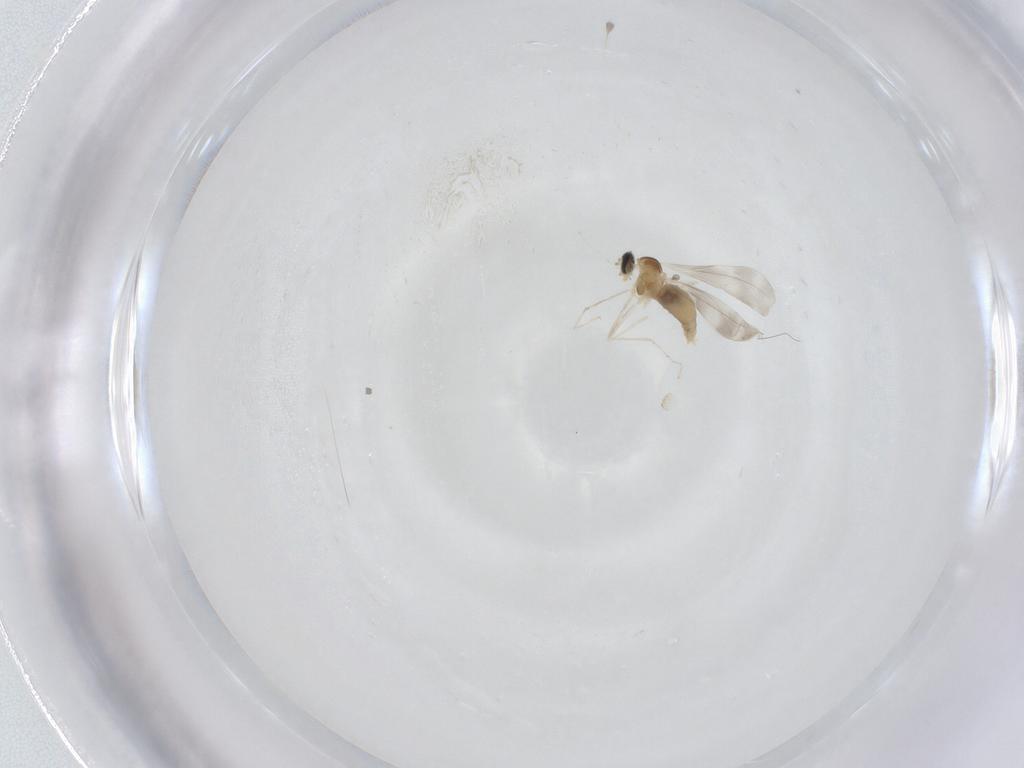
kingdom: Animalia
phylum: Arthropoda
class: Insecta
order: Diptera
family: Cecidomyiidae
